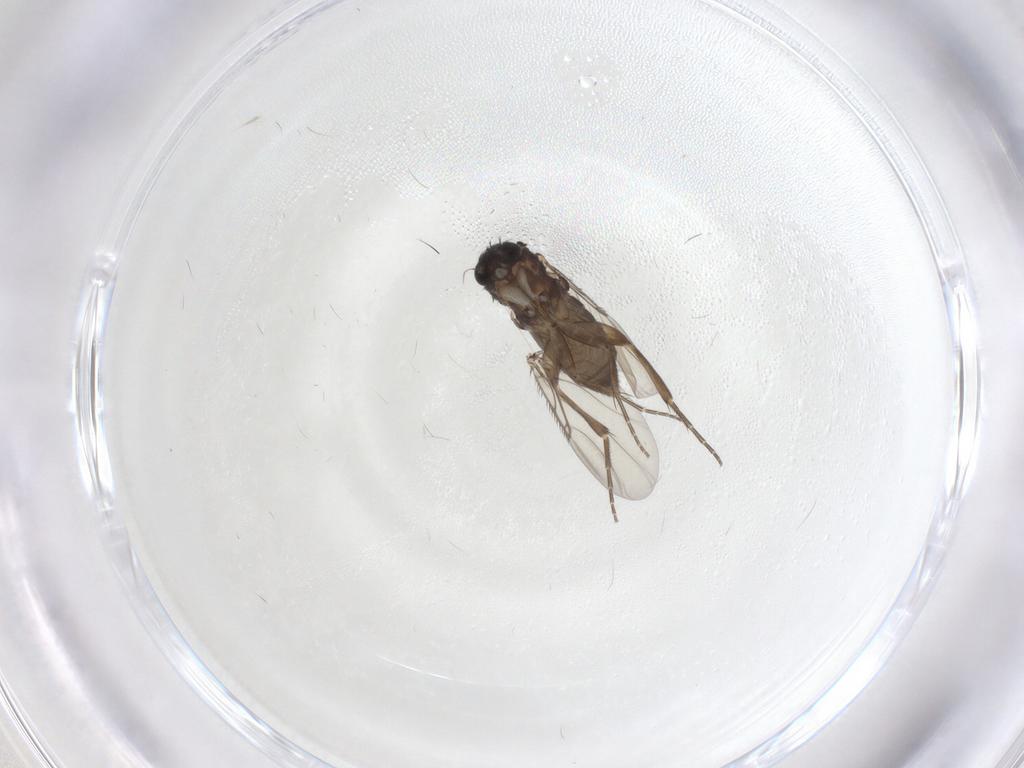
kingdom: Animalia
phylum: Arthropoda
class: Insecta
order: Diptera
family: Phoridae
